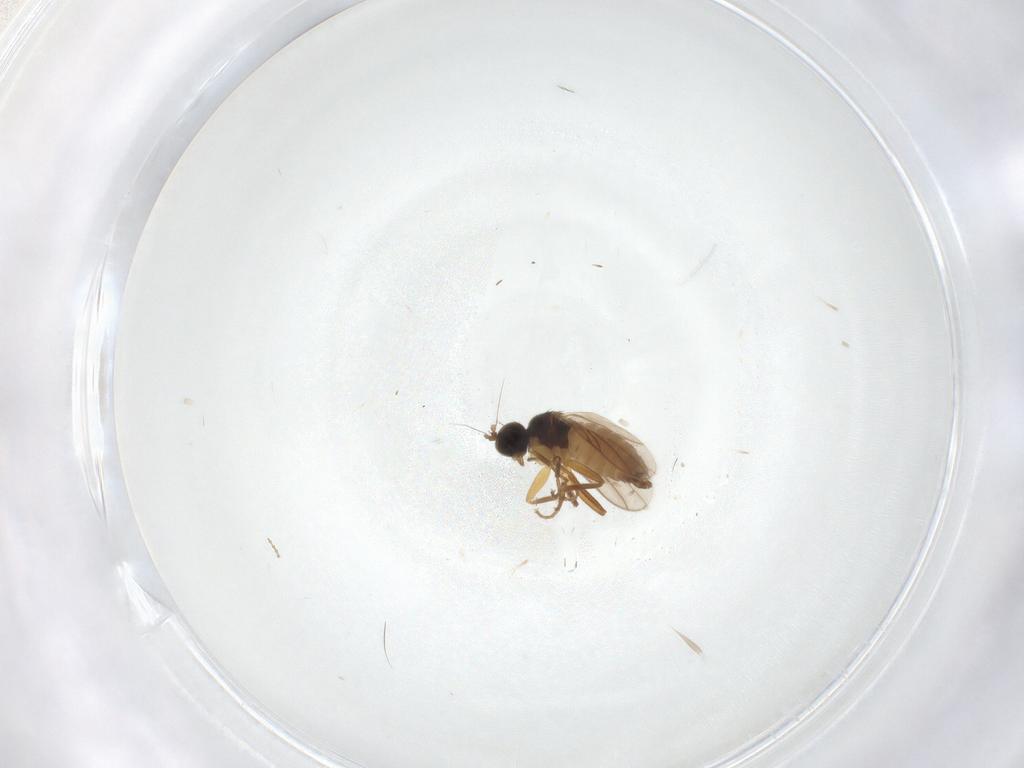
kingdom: Animalia
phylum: Arthropoda
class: Insecta
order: Diptera
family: Hybotidae
